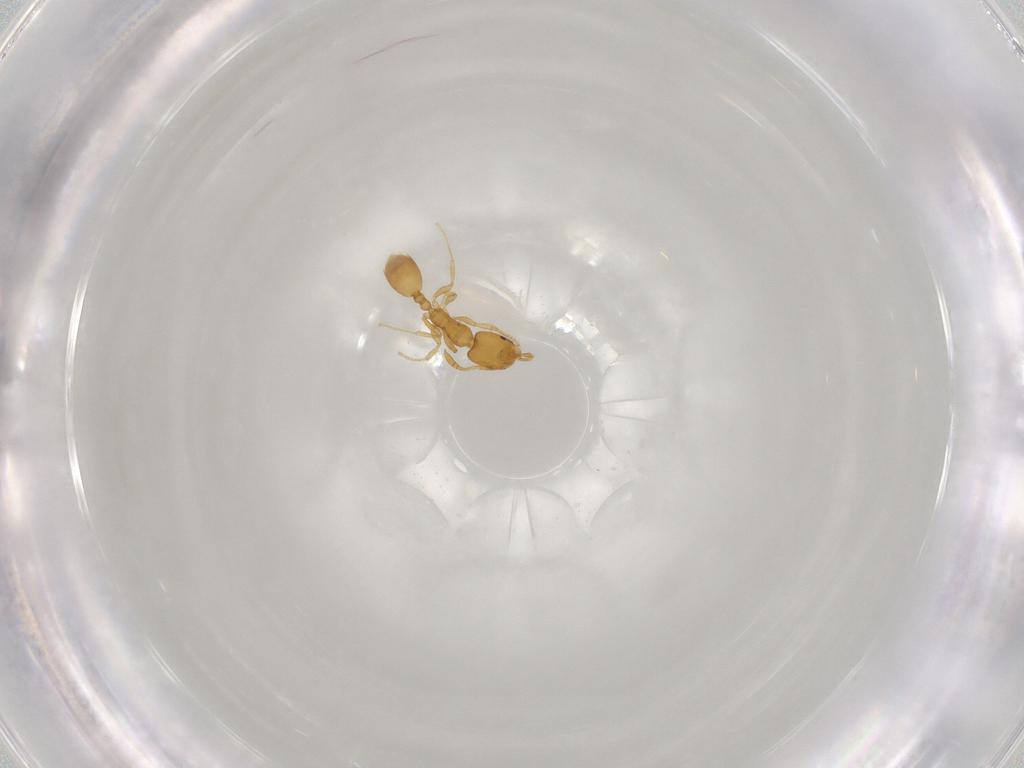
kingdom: Animalia
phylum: Arthropoda
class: Insecta
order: Hymenoptera
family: Formicidae
